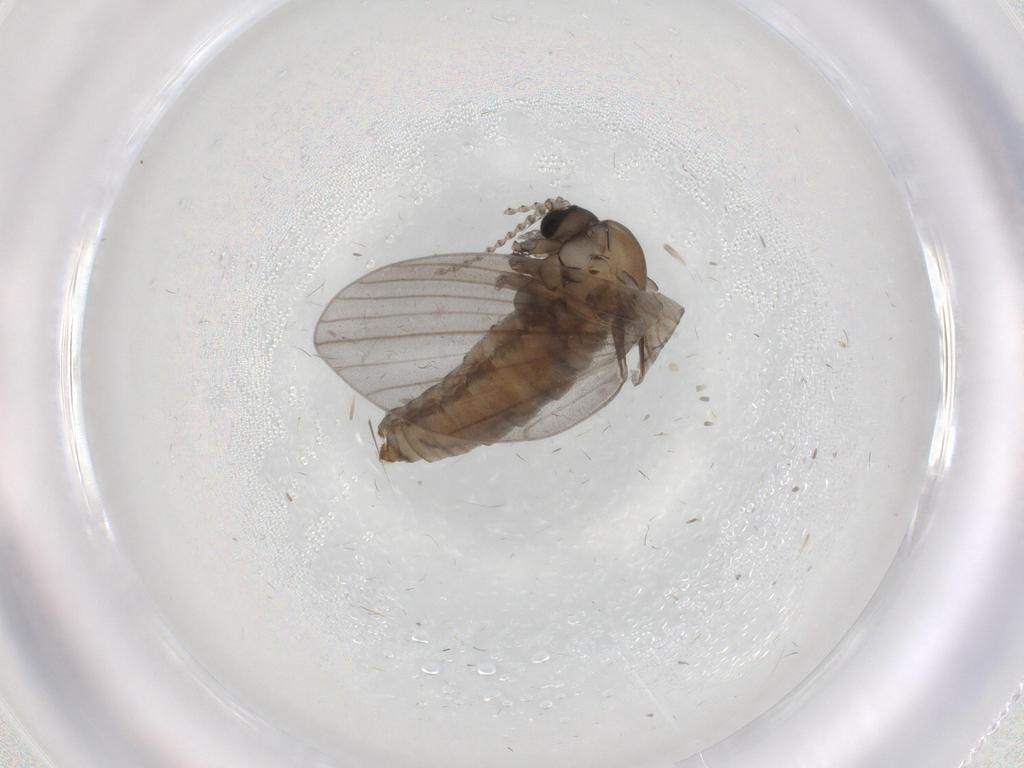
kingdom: Animalia
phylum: Arthropoda
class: Insecta
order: Diptera
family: Psychodidae
